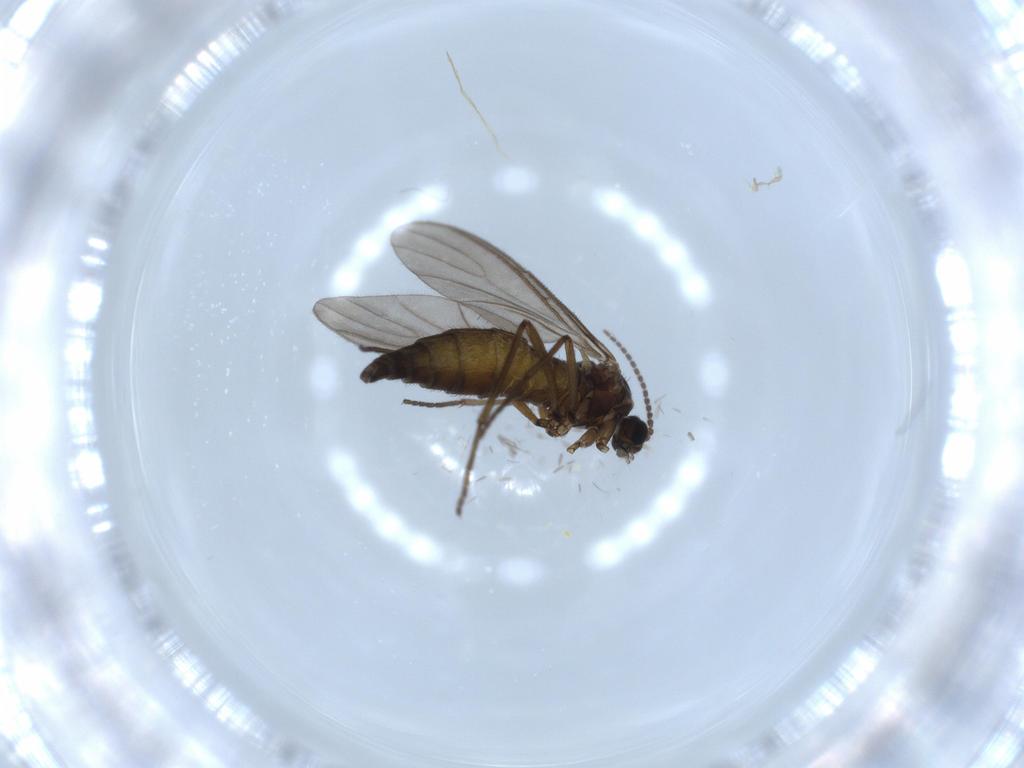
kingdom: Animalia
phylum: Arthropoda
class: Insecta
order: Diptera
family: Sciaridae
